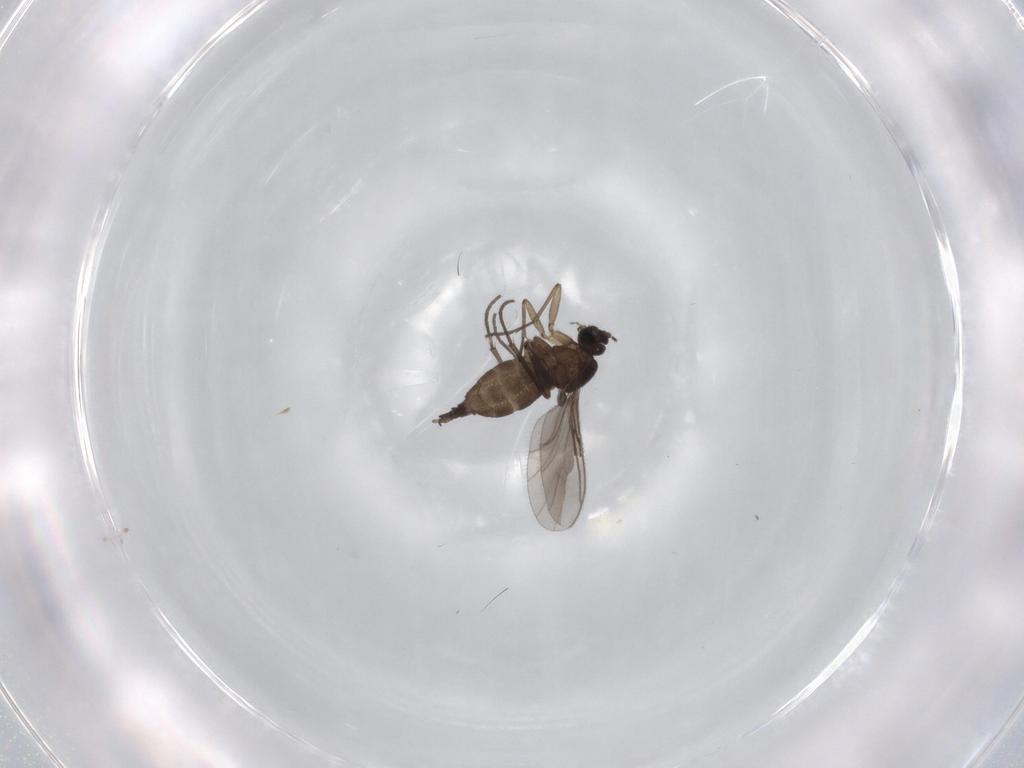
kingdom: Animalia
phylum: Arthropoda
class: Insecta
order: Diptera
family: Sciaridae
